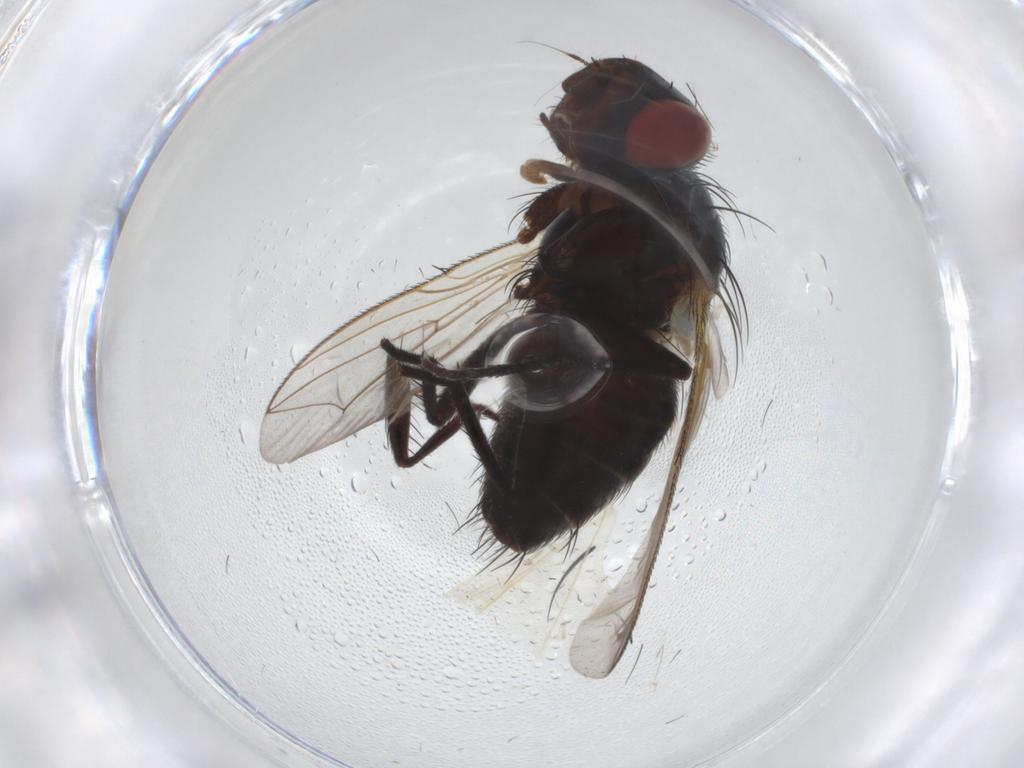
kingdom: Animalia
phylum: Arthropoda
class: Insecta
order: Diptera
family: Sarcophagidae
